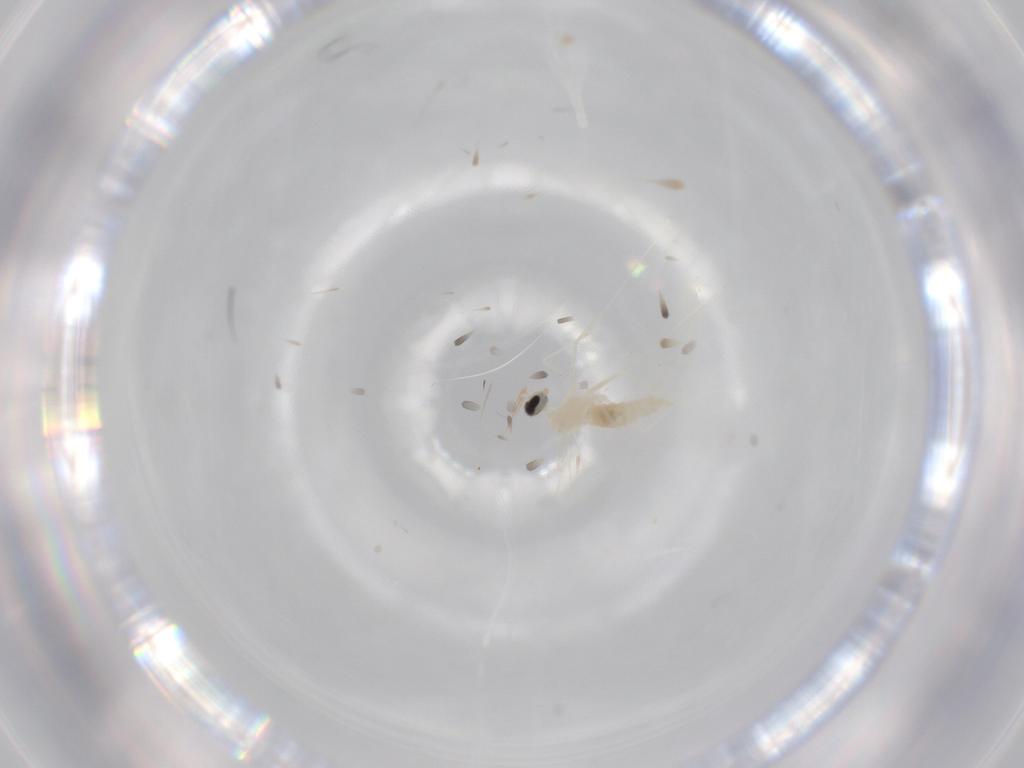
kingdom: Animalia
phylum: Arthropoda
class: Insecta
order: Diptera
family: Cecidomyiidae
